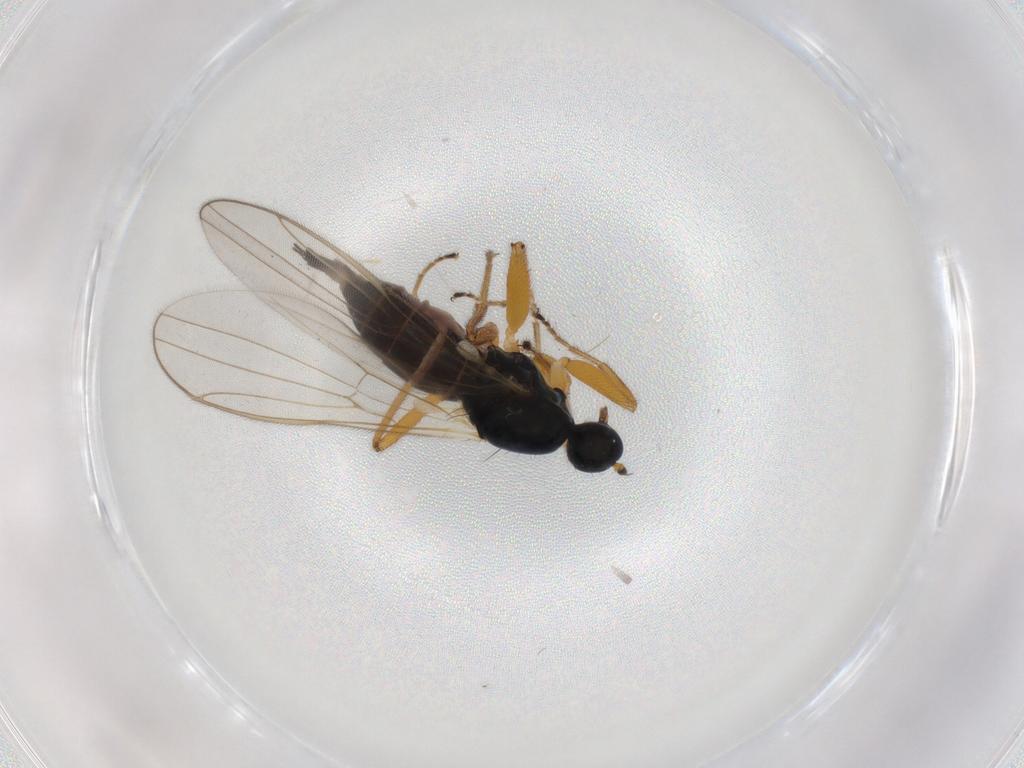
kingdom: Animalia
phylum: Arthropoda
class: Insecta
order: Diptera
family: Hybotidae
